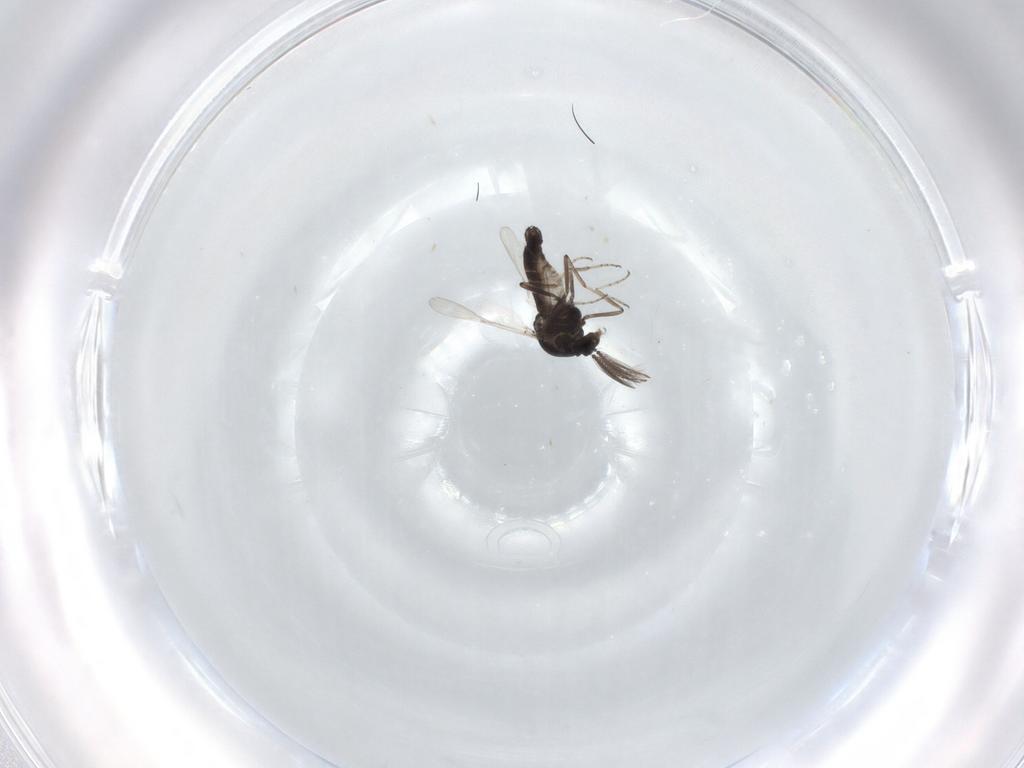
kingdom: Animalia
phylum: Arthropoda
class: Insecta
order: Diptera
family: Ceratopogonidae
